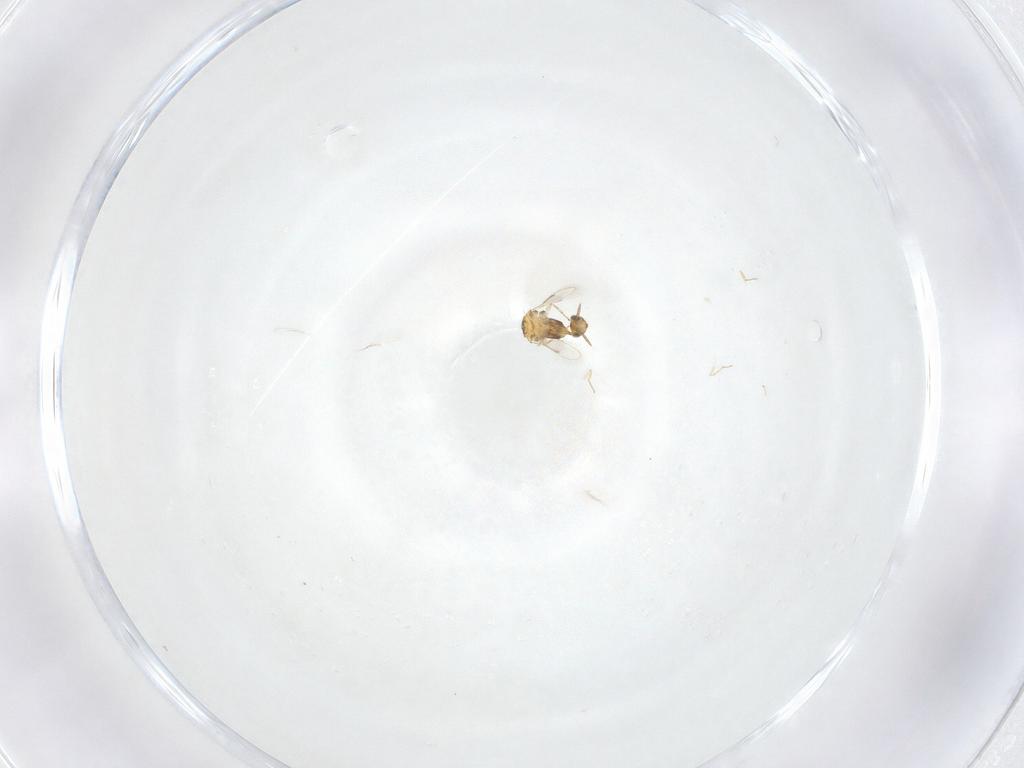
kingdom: Animalia
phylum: Arthropoda
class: Insecta
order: Hymenoptera
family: Aphelinidae
